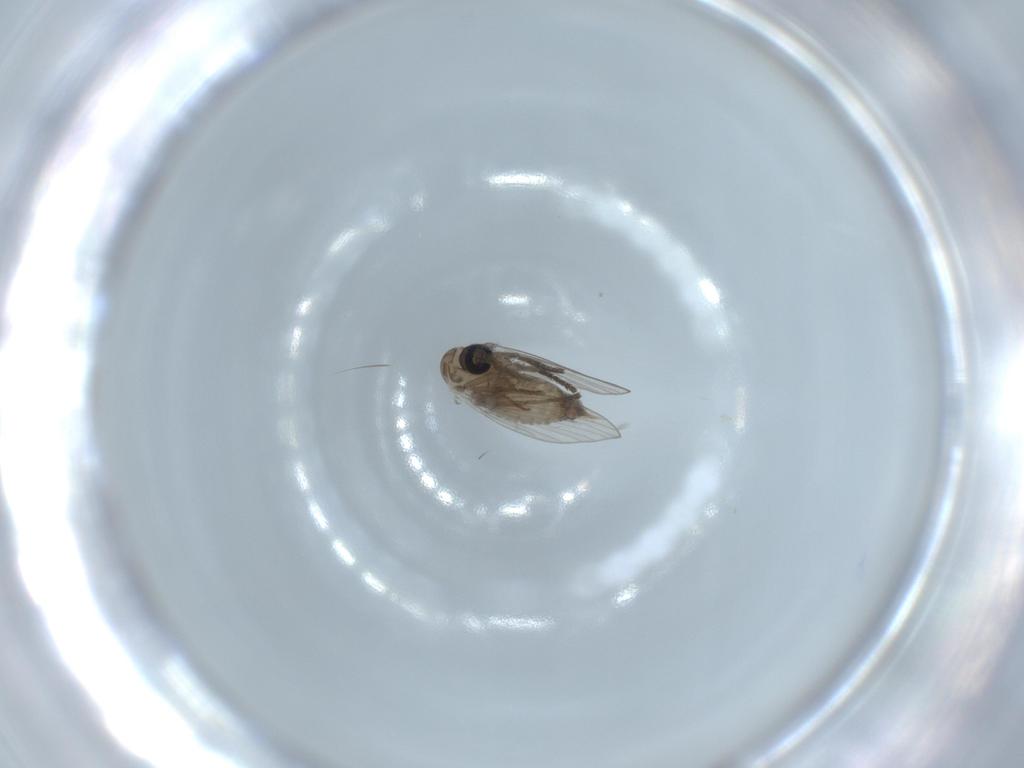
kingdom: Animalia
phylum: Arthropoda
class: Insecta
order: Diptera
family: Psychodidae
